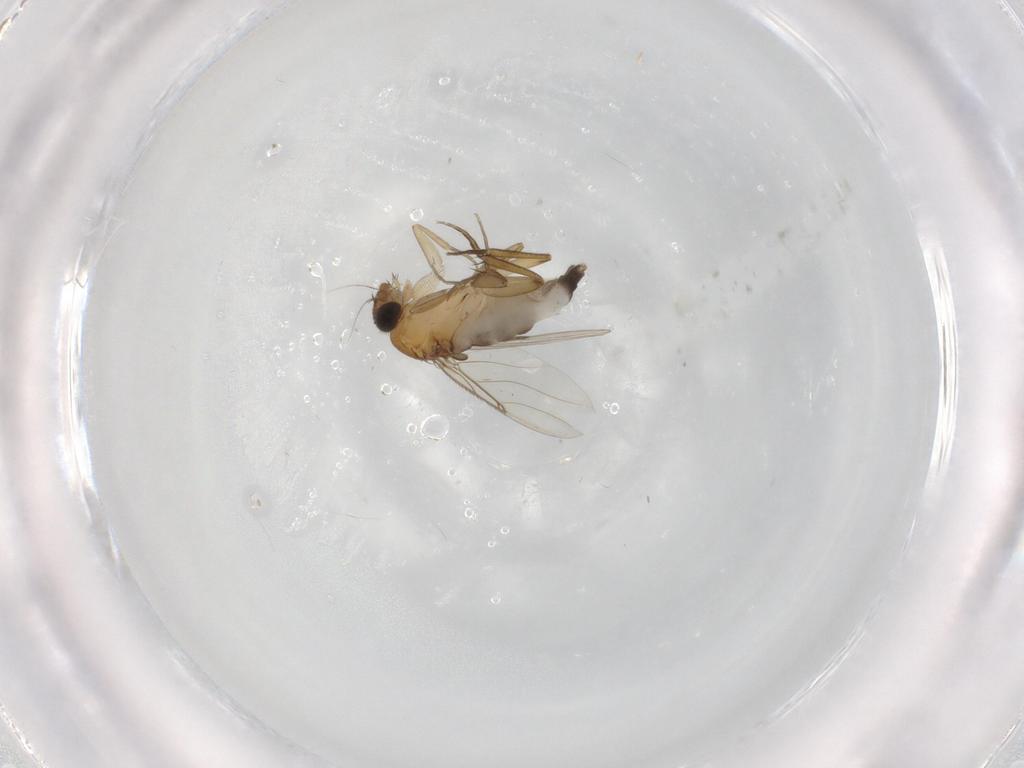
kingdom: Animalia
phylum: Arthropoda
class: Insecta
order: Diptera
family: Phoridae
